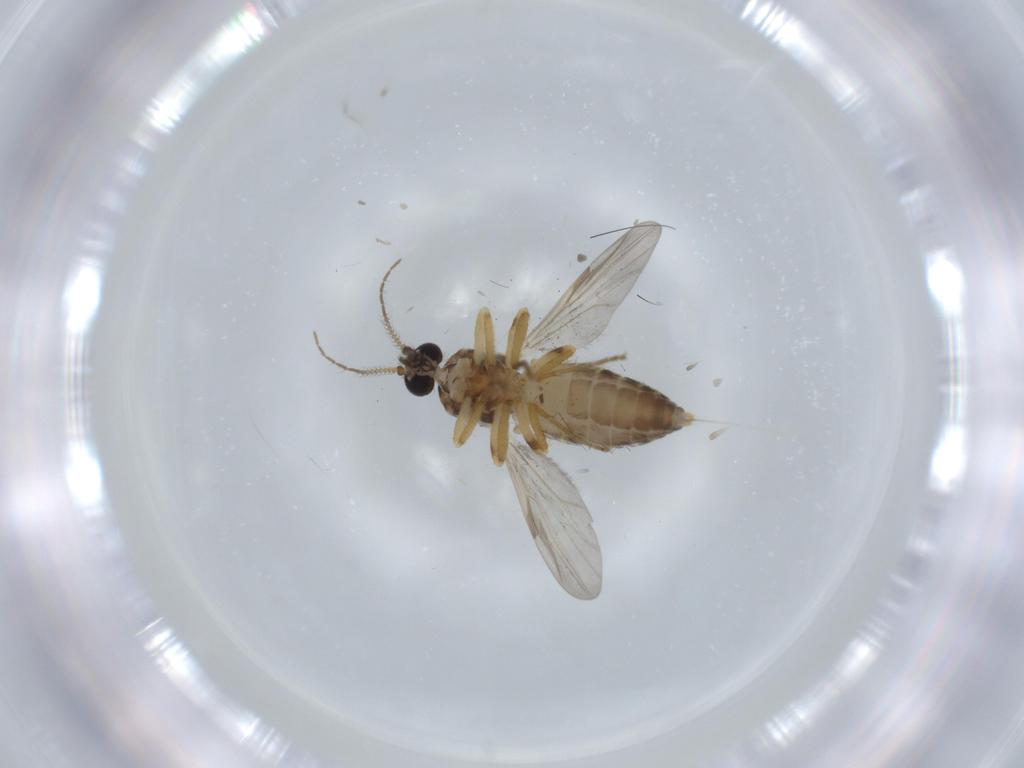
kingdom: Animalia
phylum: Arthropoda
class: Insecta
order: Diptera
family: Ceratopogonidae
